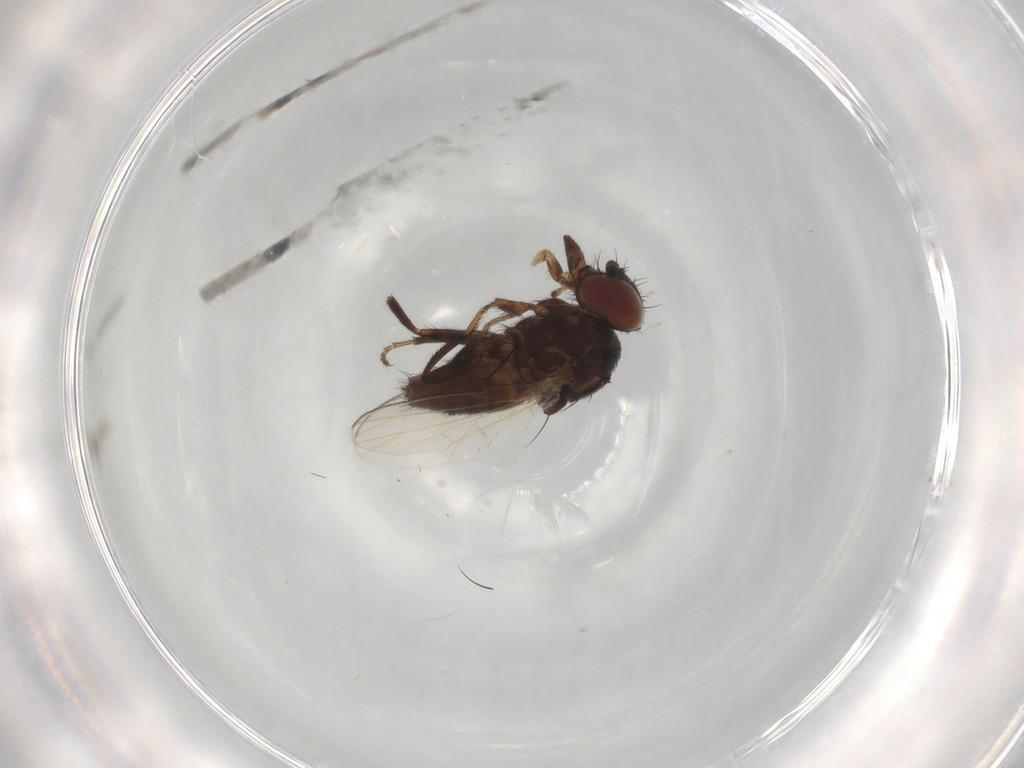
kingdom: Animalia
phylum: Arthropoda
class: Insecta
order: Diptera
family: Milichiidae
